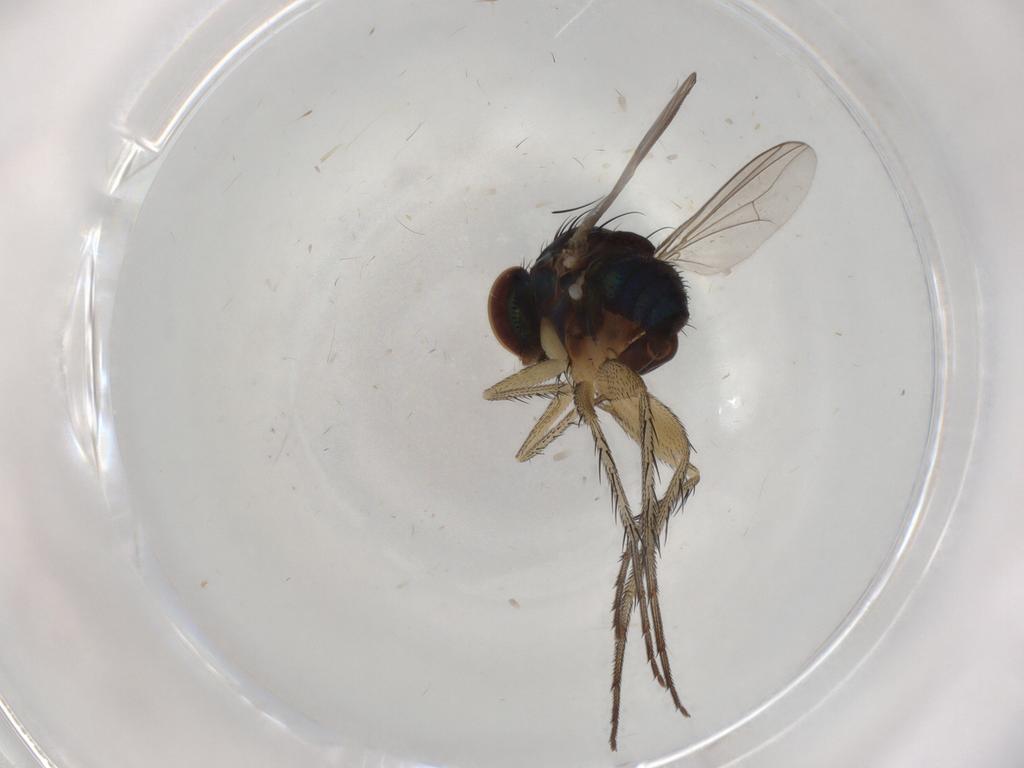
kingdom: Animalia
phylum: Arthropoda
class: Insecta
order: Diptera
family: Dolichopodidae
